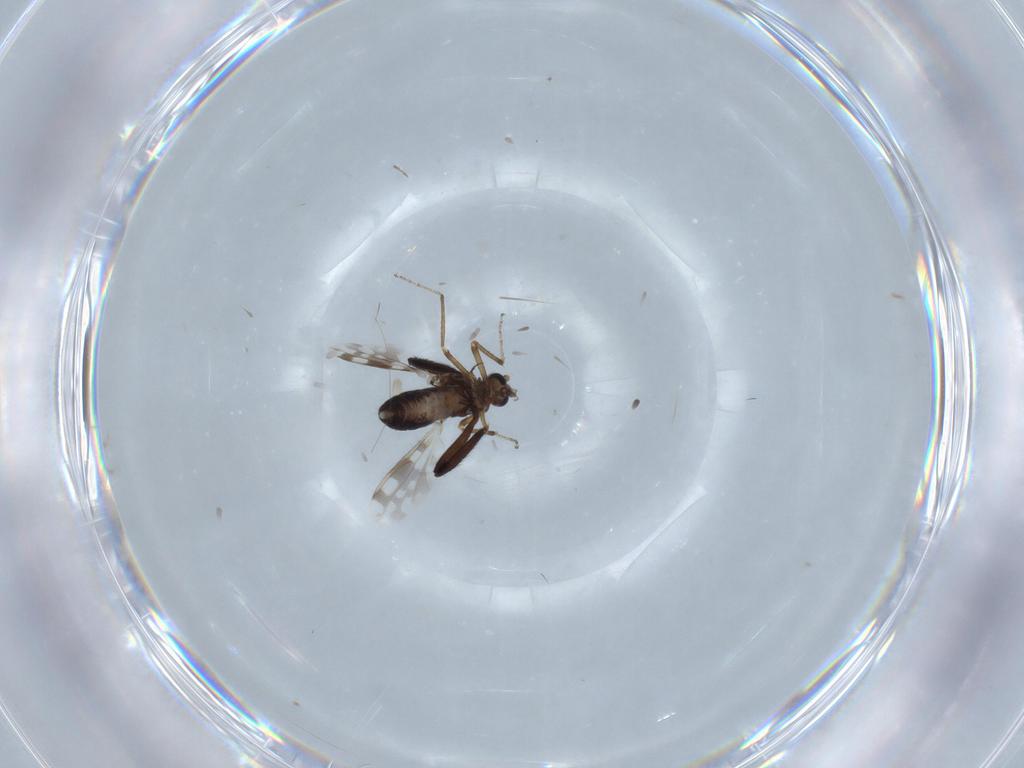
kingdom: Animalia
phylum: Arthropoda
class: Insecta
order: Diptera
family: Ceratopogonidae
